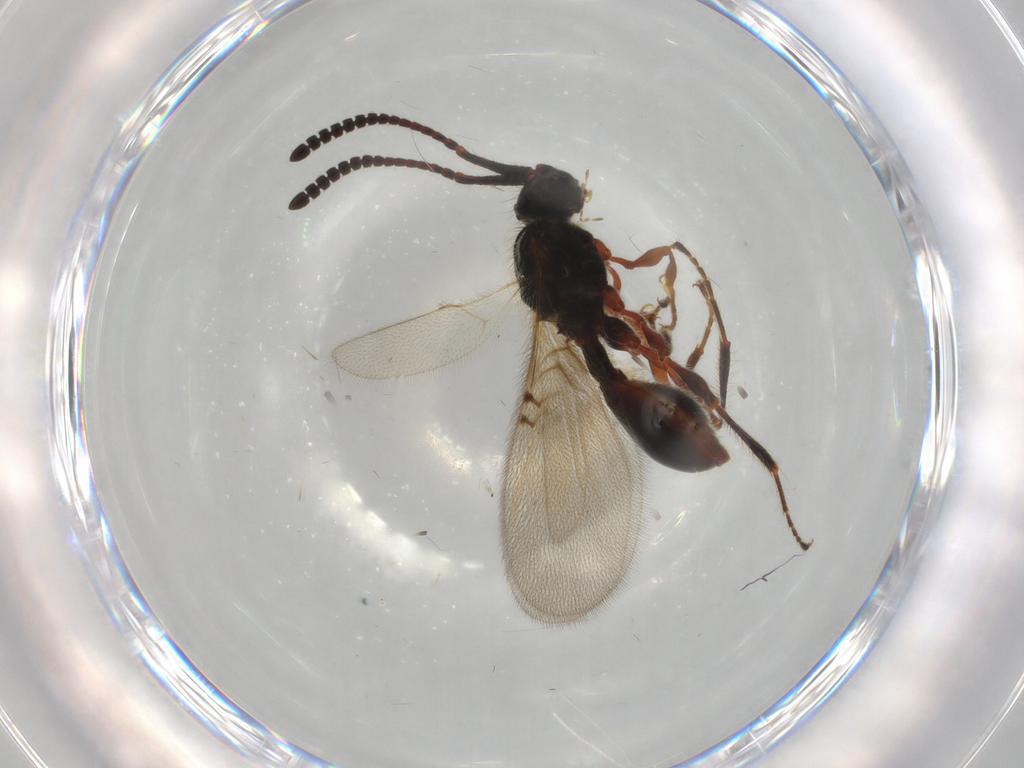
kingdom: Animalia
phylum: Arthropoda
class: Insecta
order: Hymenoptera
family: Diapriidae
